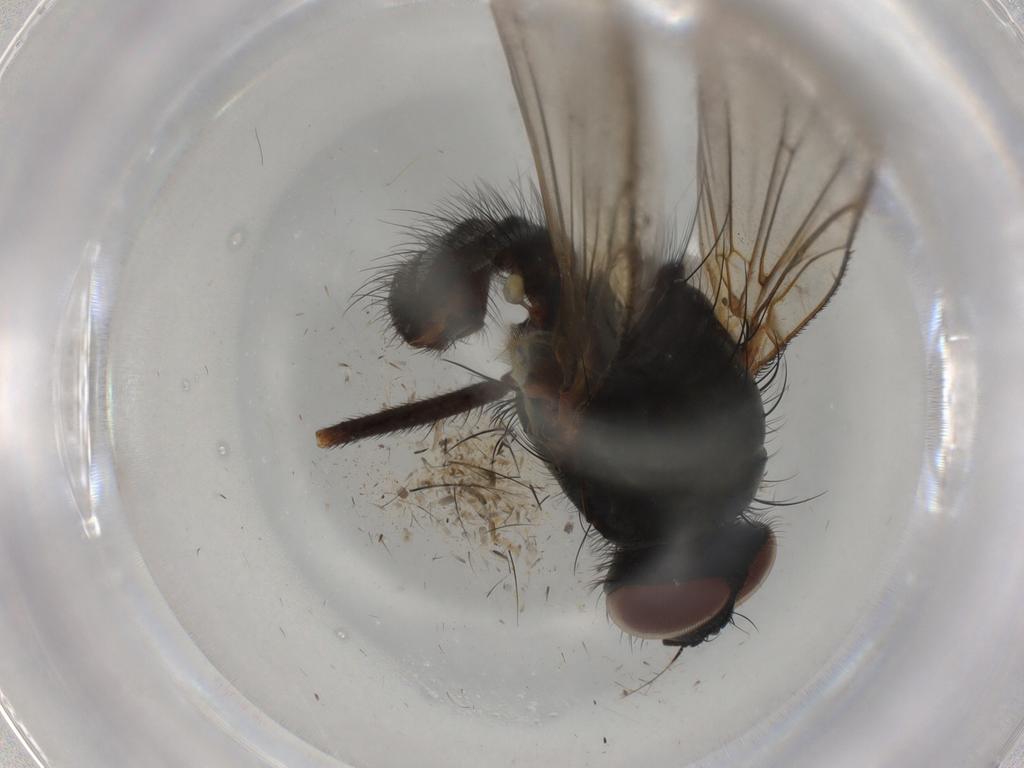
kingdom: Animalia
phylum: Arthropoda
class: Insecta
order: Diptera
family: Anthomyiidae
